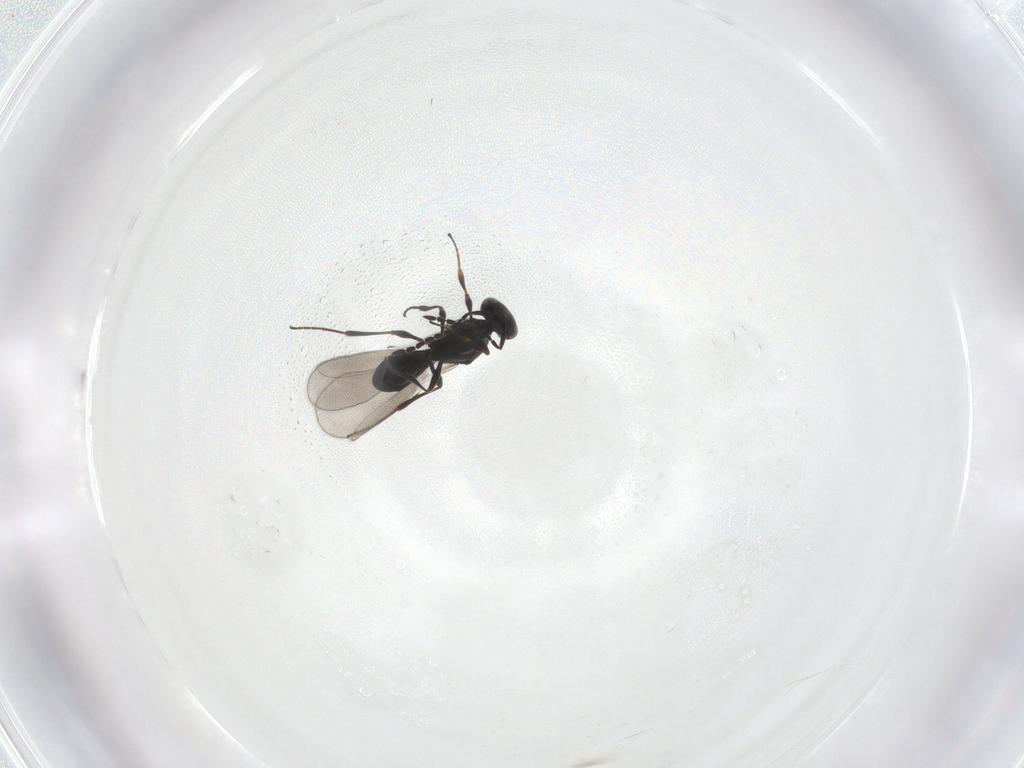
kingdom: Animalia
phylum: Arthropoda
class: Insecta
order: Hymenoptera
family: Platygastridae
